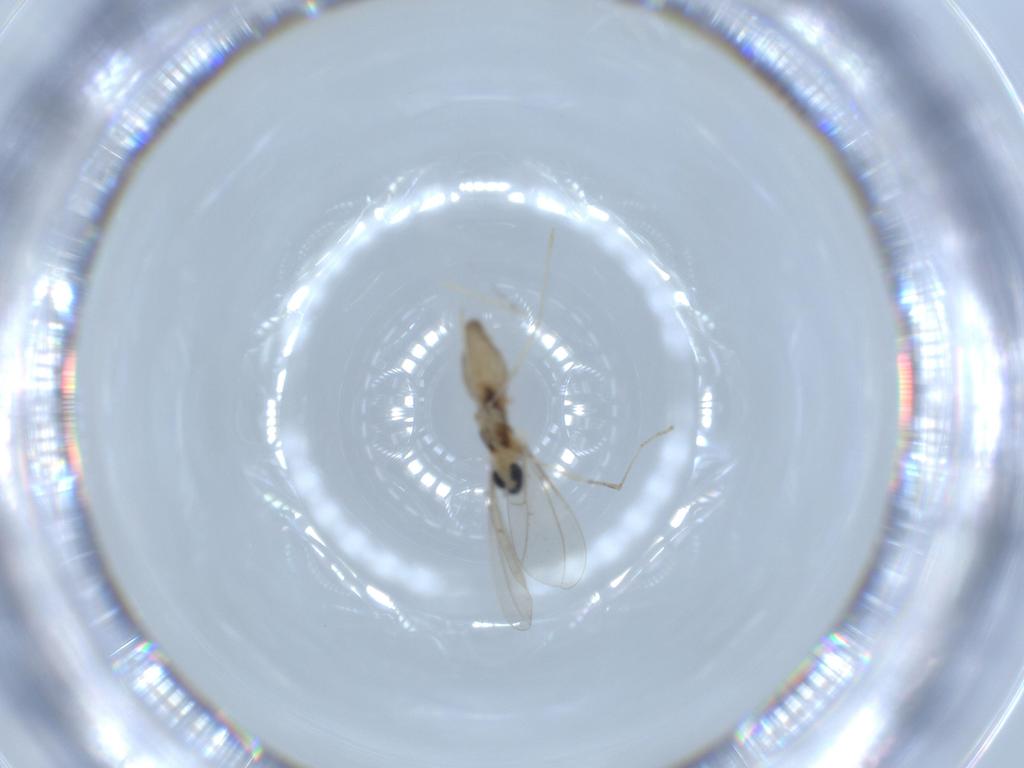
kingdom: Animalia
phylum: Arthropoda
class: Insecta
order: Diptera
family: Cecidomyiidae
